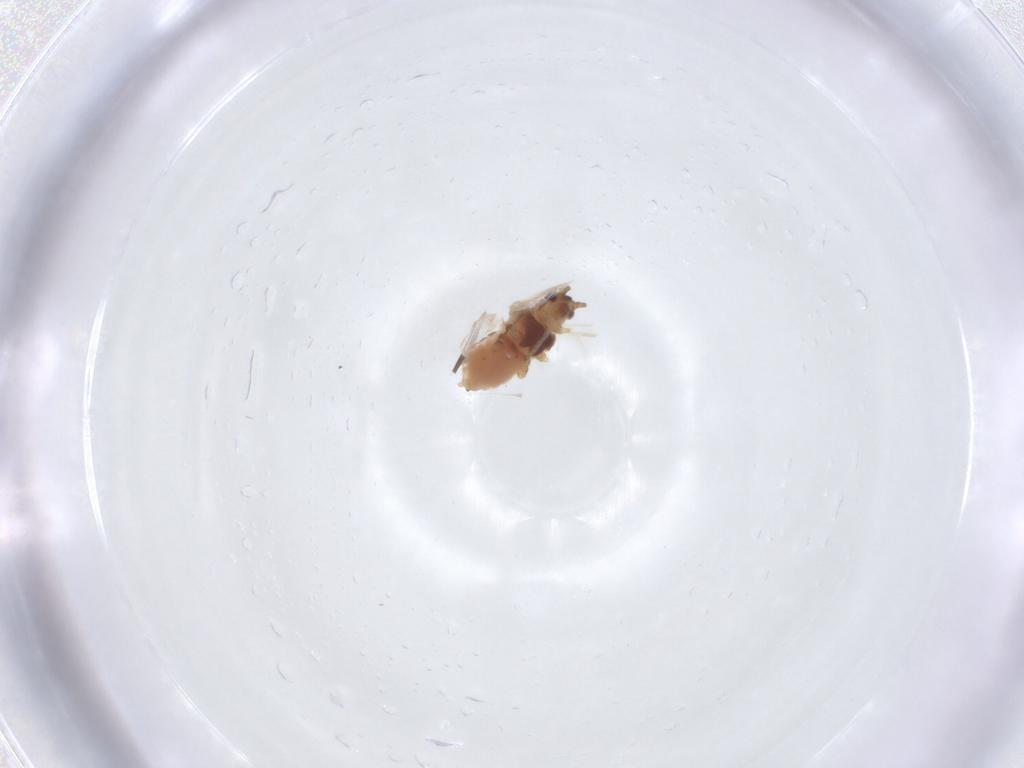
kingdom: Animalia
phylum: Arthropoda
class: Insecta
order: Hemiptera
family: Aphididae
